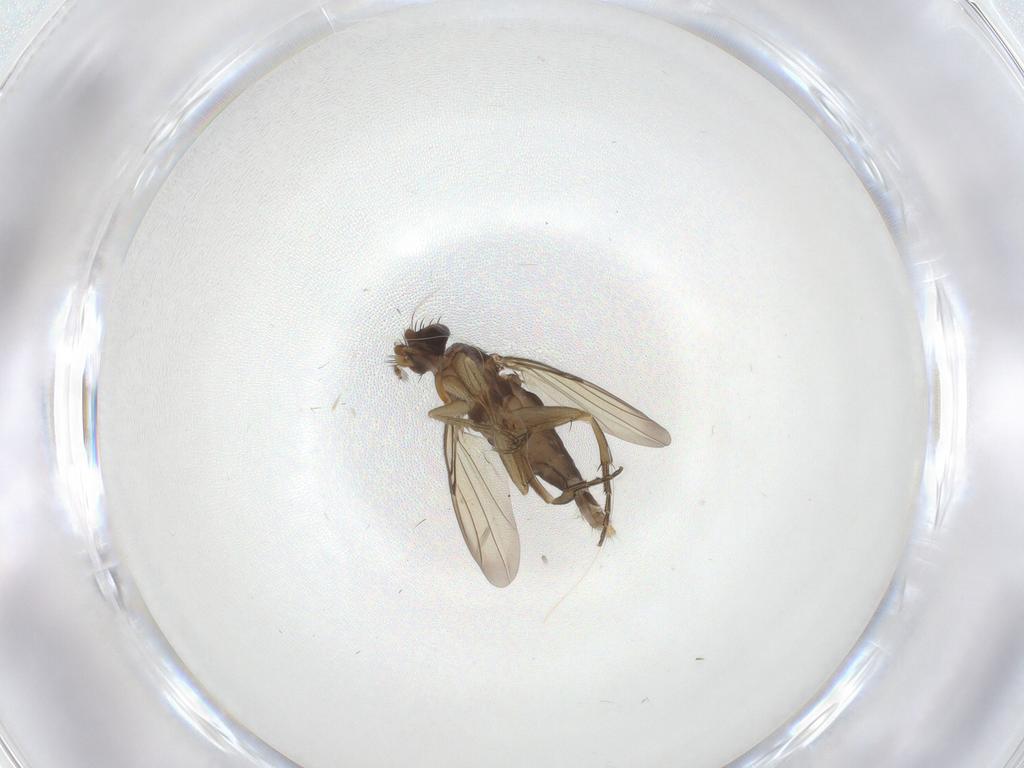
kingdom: Animalia
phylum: Arthropoda
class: Insecta
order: Diptera
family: Phoridae
